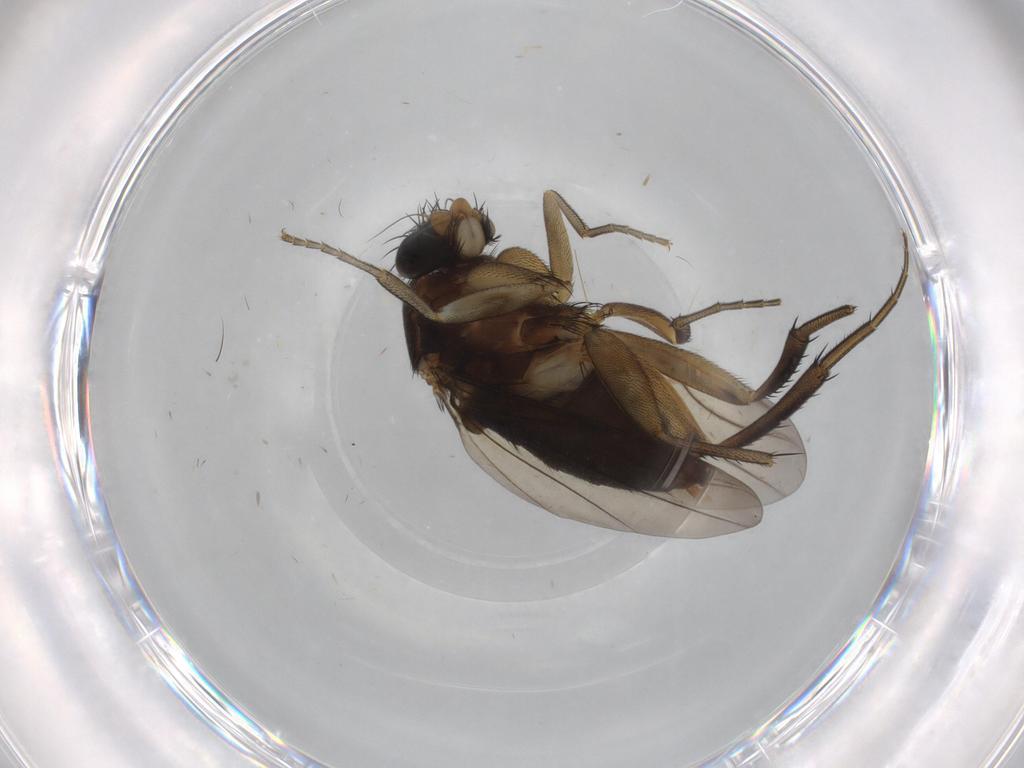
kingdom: Animalia
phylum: Arthropoda
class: Insecta
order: Diptera
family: Phoridae
